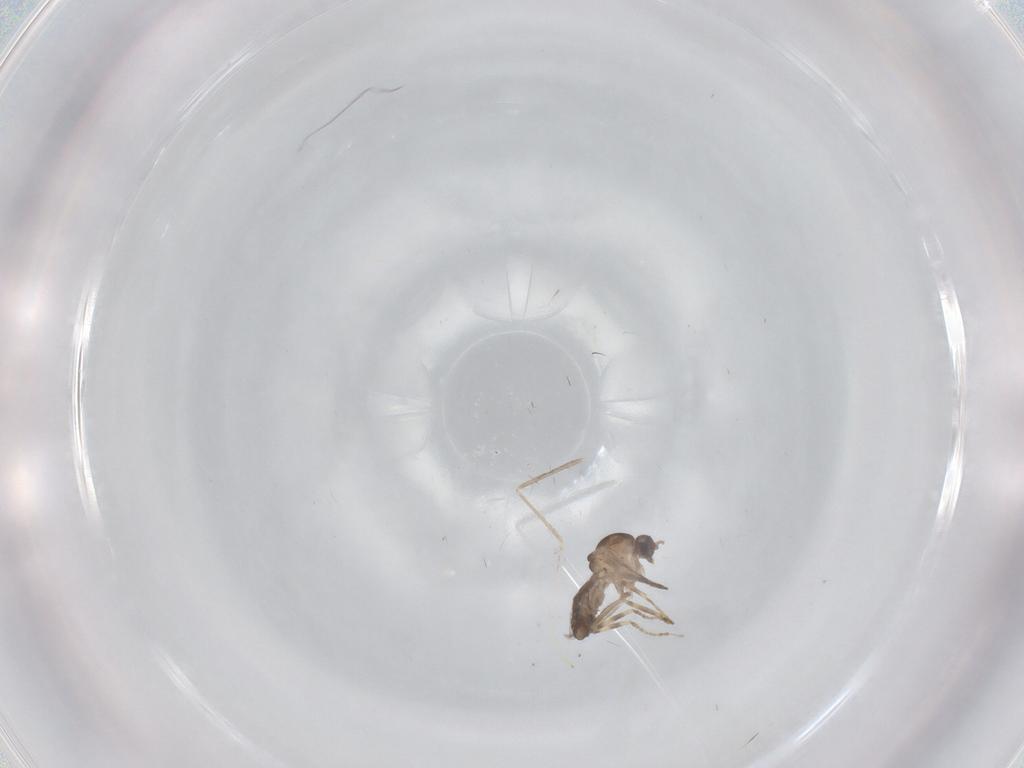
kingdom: Animalia
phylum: Arthropoda
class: Insecta
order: Diptera
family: Ceratopogonidae
